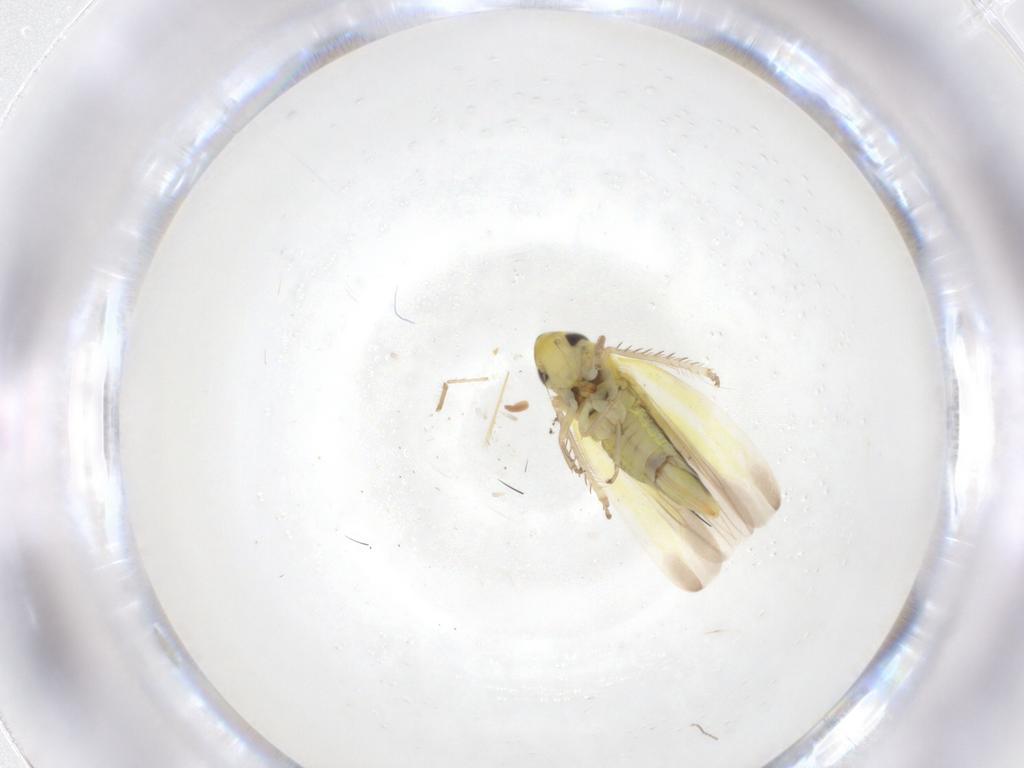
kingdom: Animalia
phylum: Arthropoda
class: Insecta
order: Hemiptera
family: Cicadellidae
